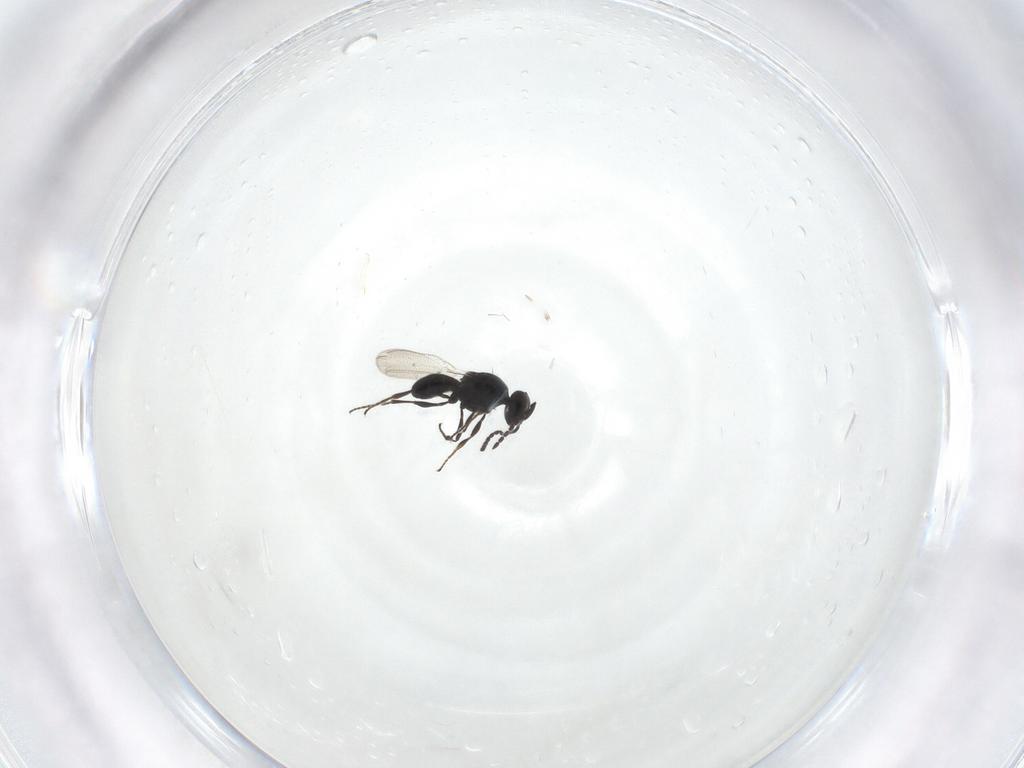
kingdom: Animalia
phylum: Arthropoda
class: Insecta
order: Hymenoptera
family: Platygastridae
